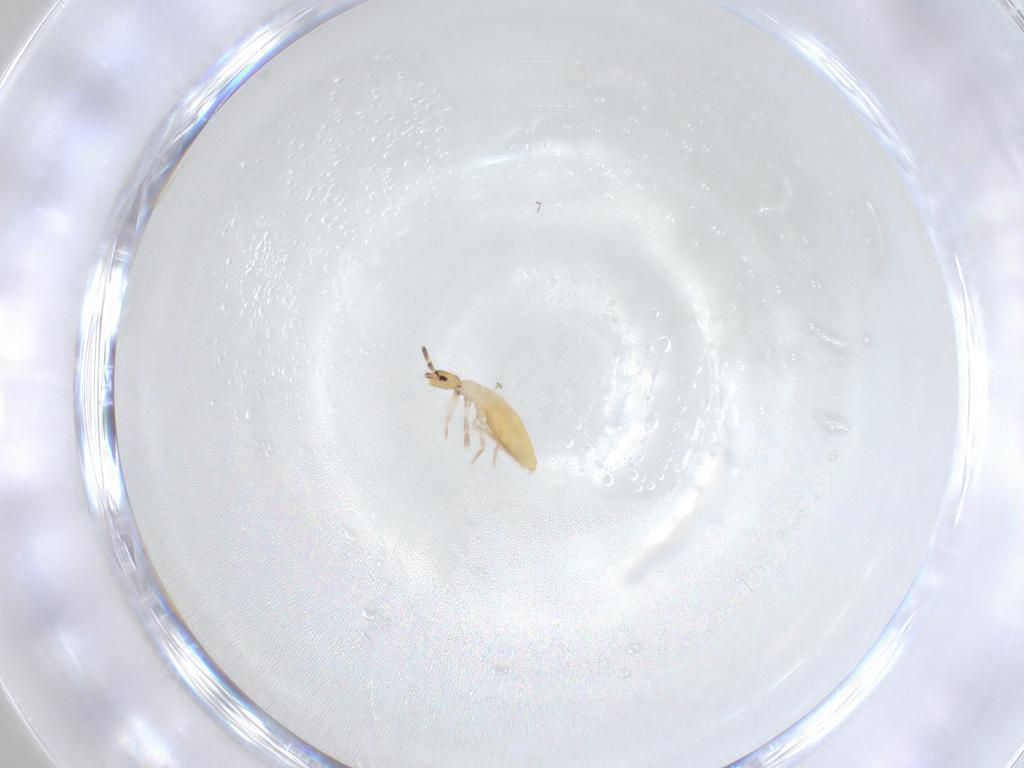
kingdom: Animalia
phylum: Arthropoda
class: Collembola
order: Entomobryomorpha
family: Entomobryidae
